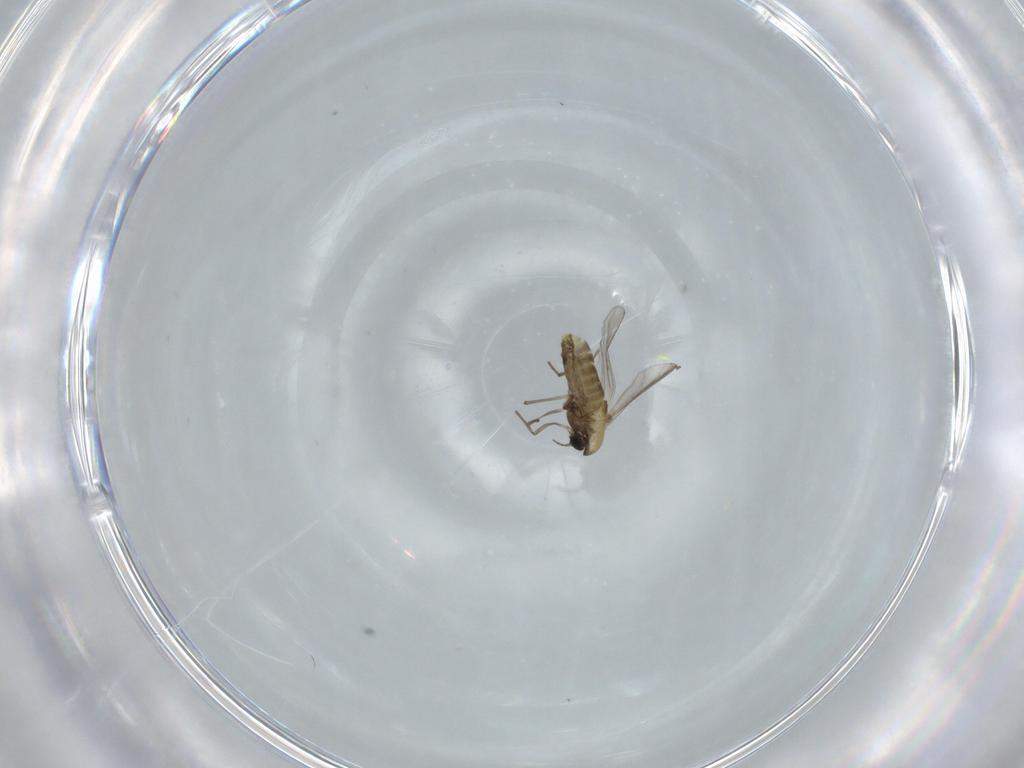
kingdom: Animalia
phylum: Arthropoda
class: Insecta
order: Diptera
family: Chironomidae
